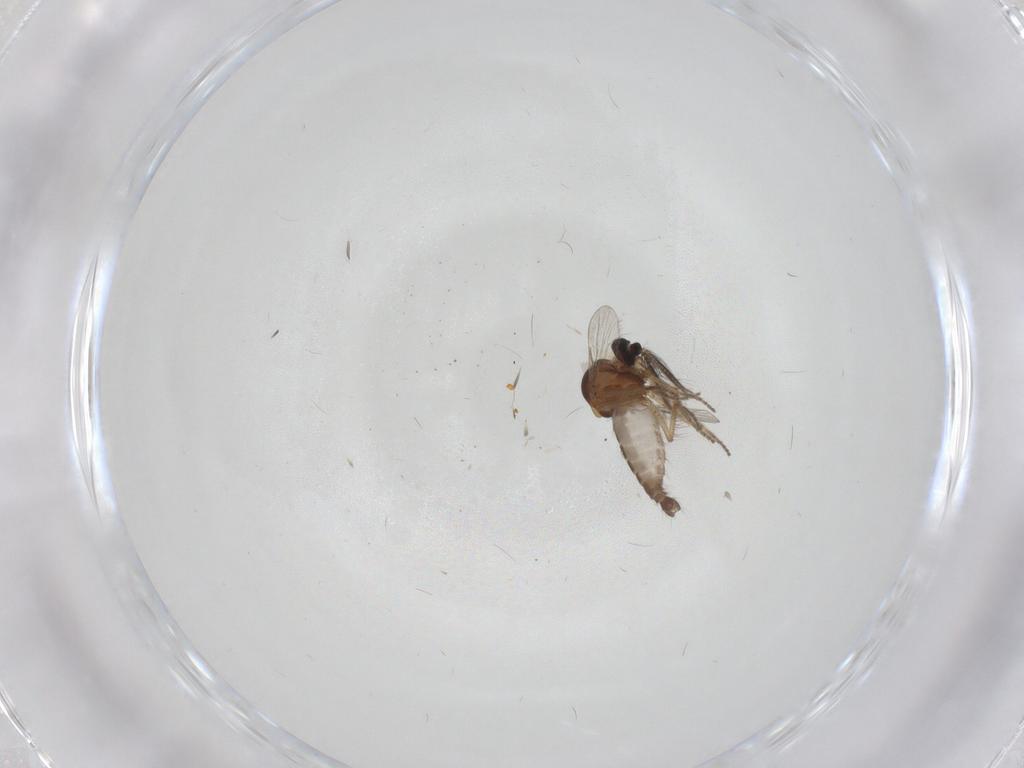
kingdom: Animalia
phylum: Arthropoda
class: Insecta
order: Diptera
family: Ceratopogonidae
